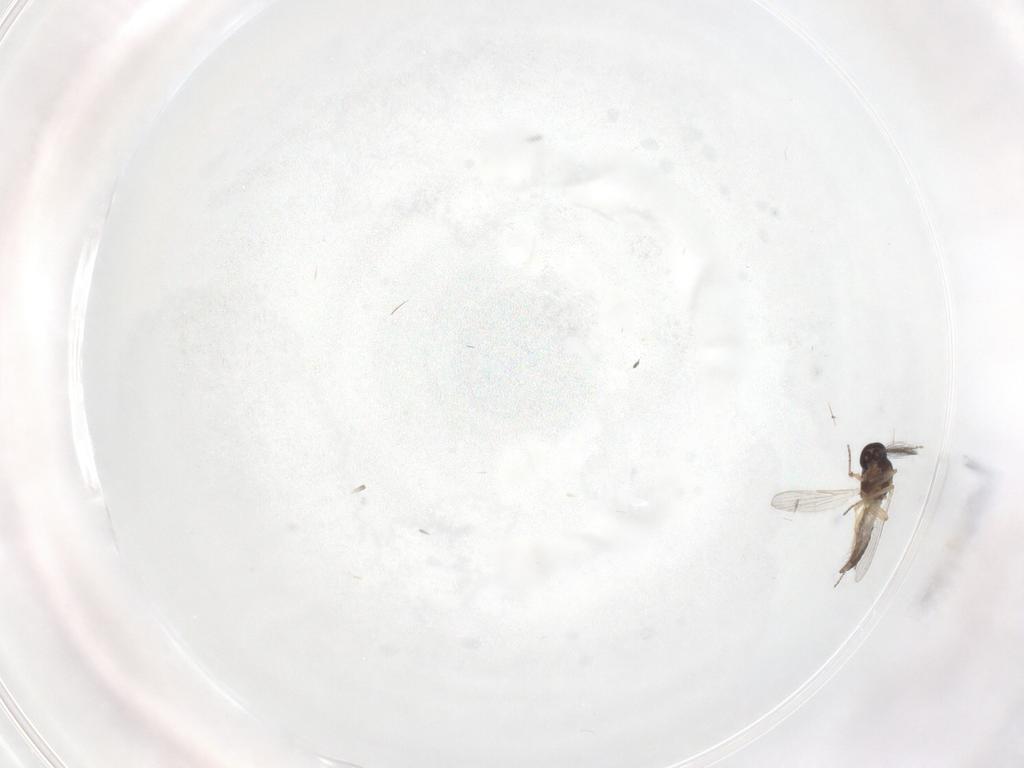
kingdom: Animalia
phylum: Arthropoda
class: Insecta
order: Diptera
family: Ceratopogonidae
